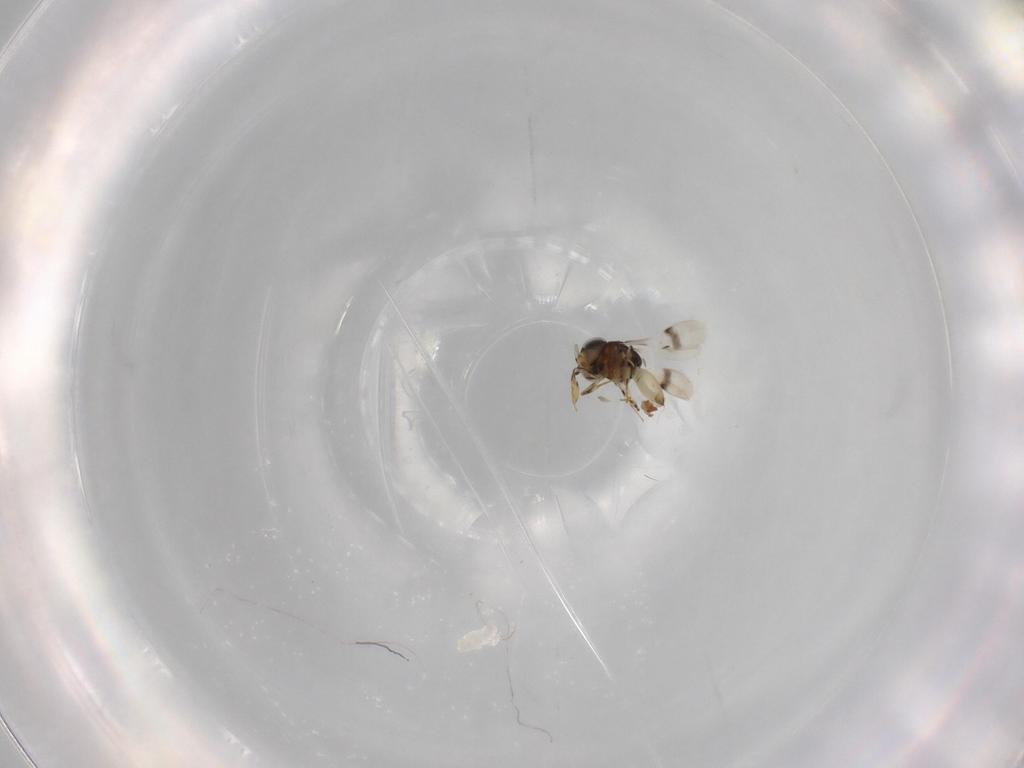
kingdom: Animalia
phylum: Arthropoda
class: Insecta
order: Hymenoptera
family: Scelionidae
